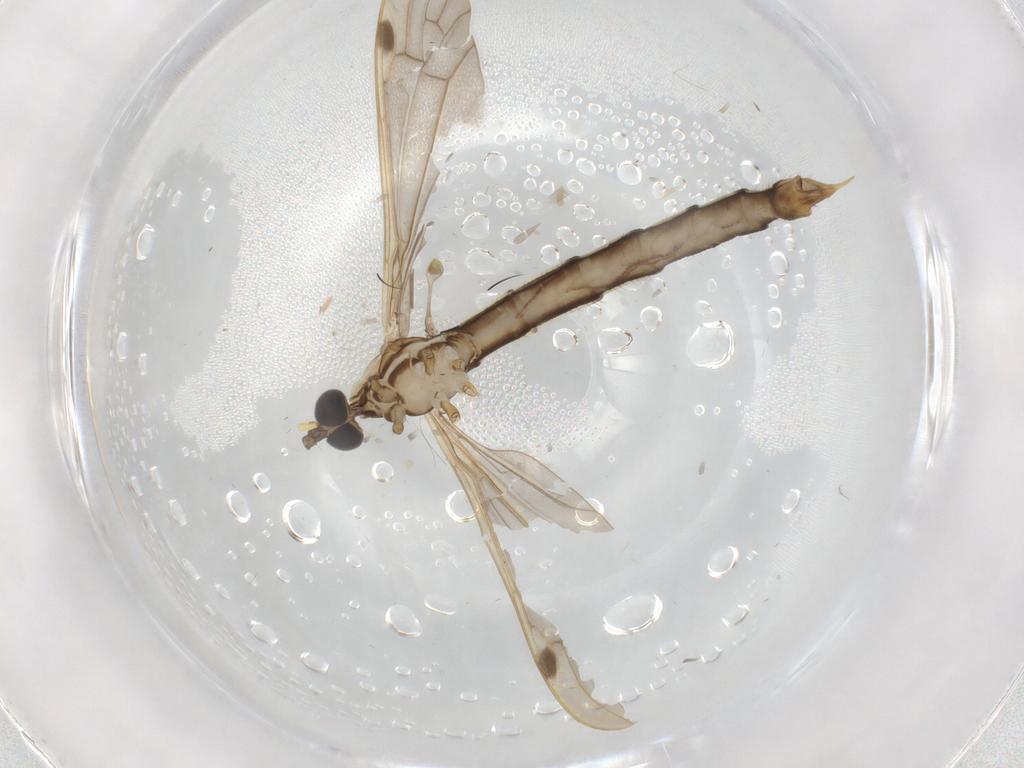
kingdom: Animalia
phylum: Arthropoda
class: Insecta
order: Diptera
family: Limoniidae
